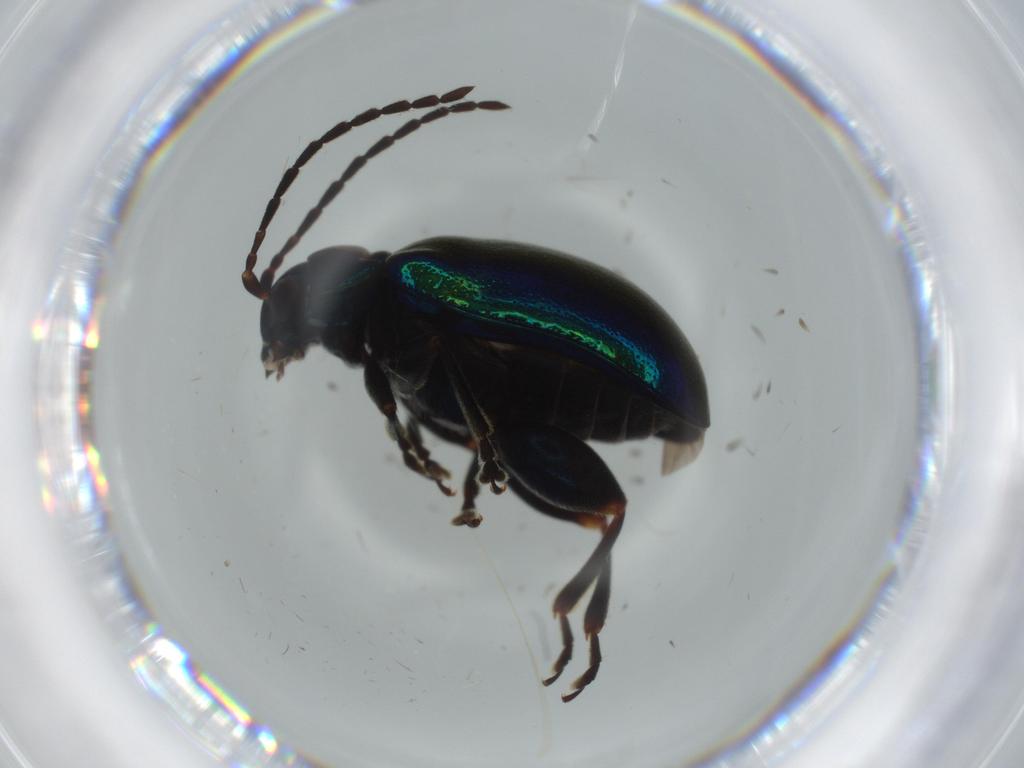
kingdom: Animalia
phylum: Arthropoda
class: Insecta
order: Coleoptera
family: Chrysomelidae
